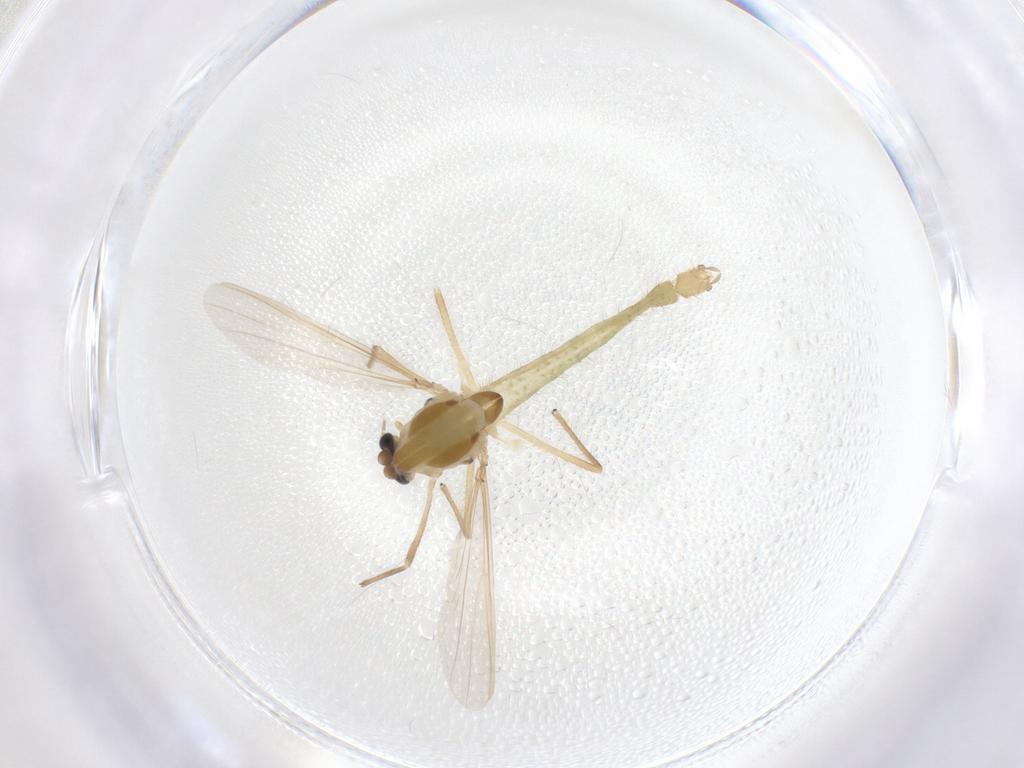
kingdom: Animalia
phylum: Arthropoda
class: Insecta
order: Diptera
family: Chironomidae
